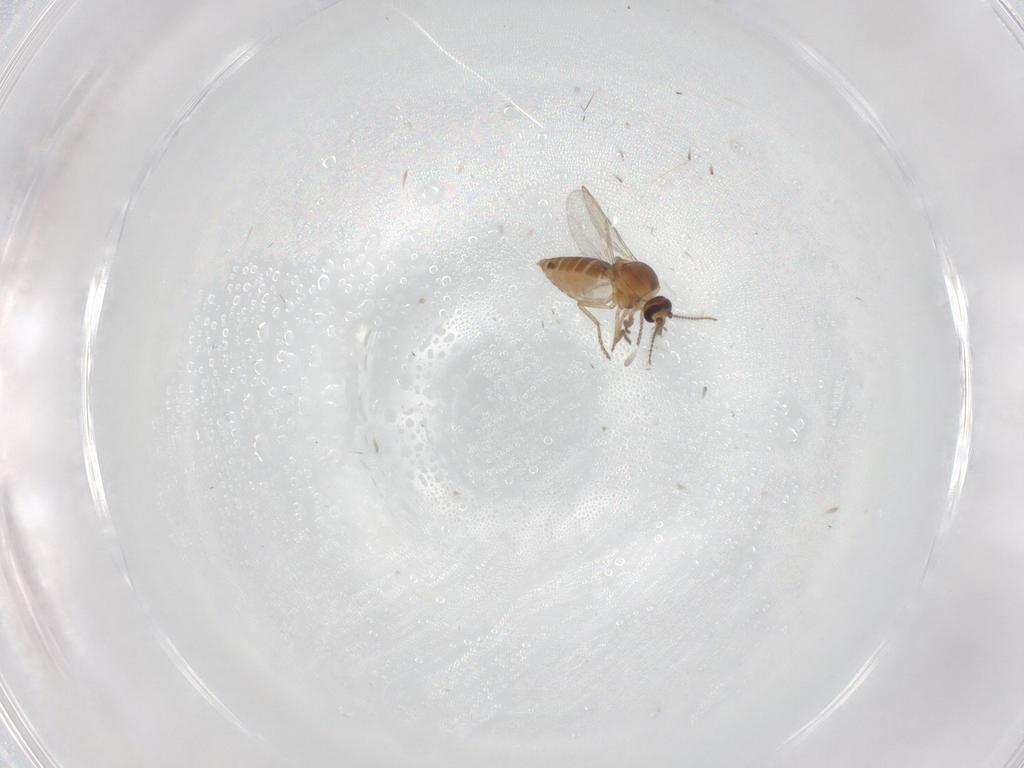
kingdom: Animalia
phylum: Arthropoda
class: Insecta
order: Diptera
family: Ceratopogonidae
